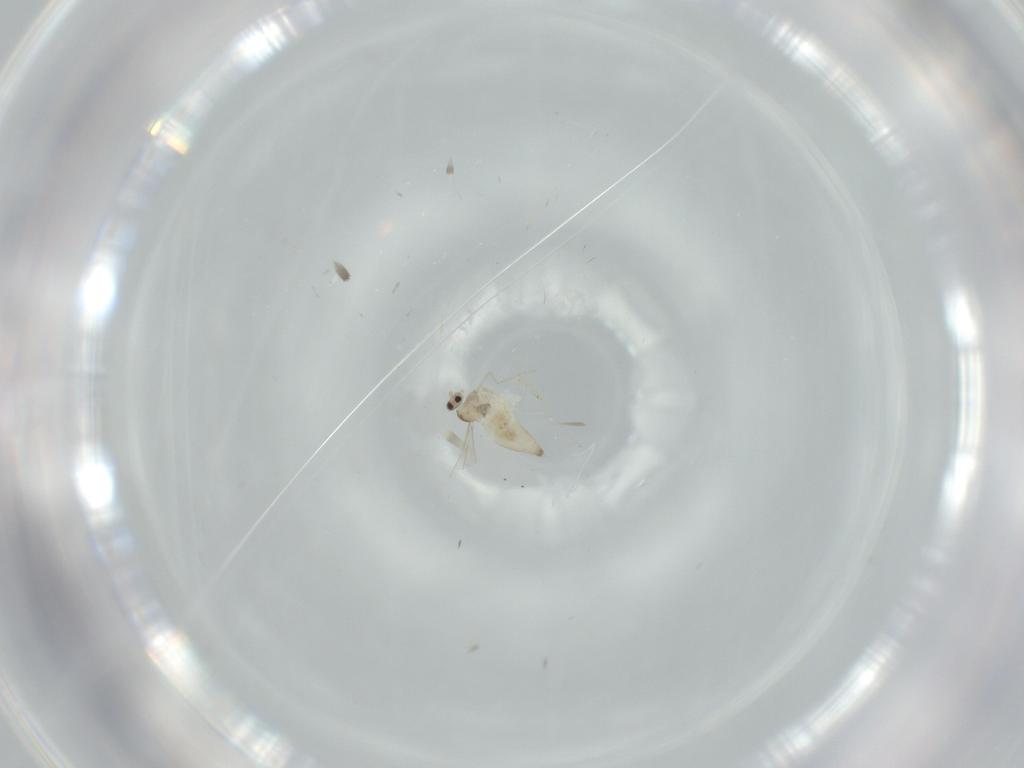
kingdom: Animalia
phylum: Arthropoda
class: Insecta
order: Diptera
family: Cecidomyiidae
